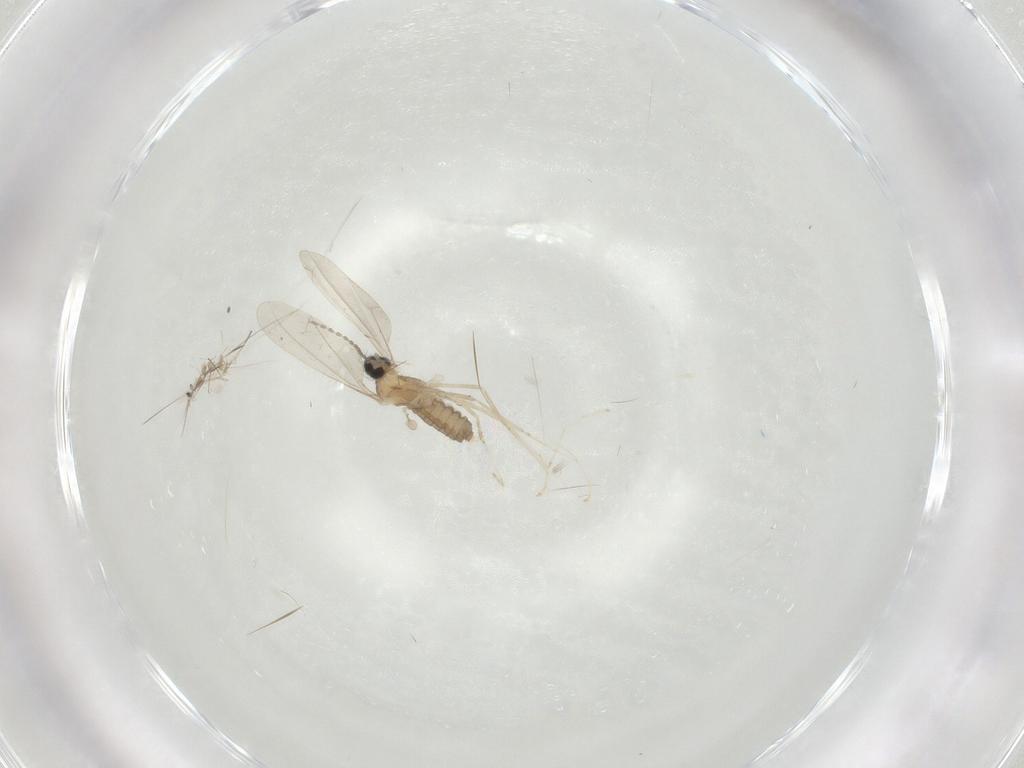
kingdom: Animalia
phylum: Arthropoda
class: Insecta
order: Diptera
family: Cecidomyiidae
